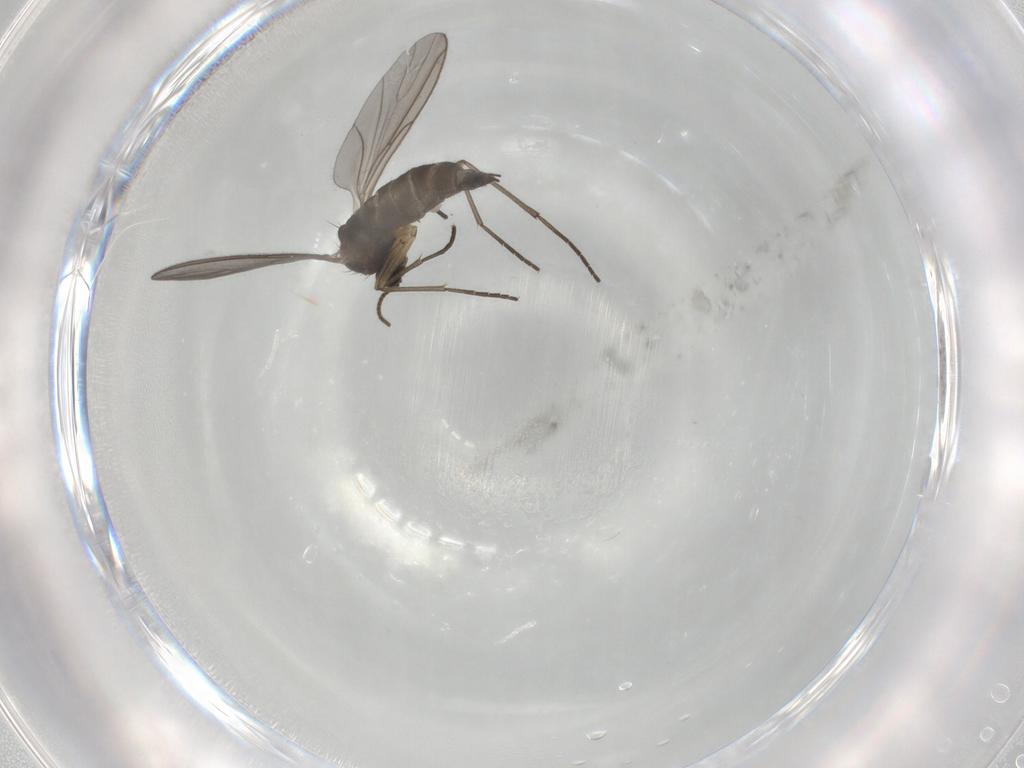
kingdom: Animalia
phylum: Arthropoda
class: Insecta
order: Diptera
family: Sciaridae
